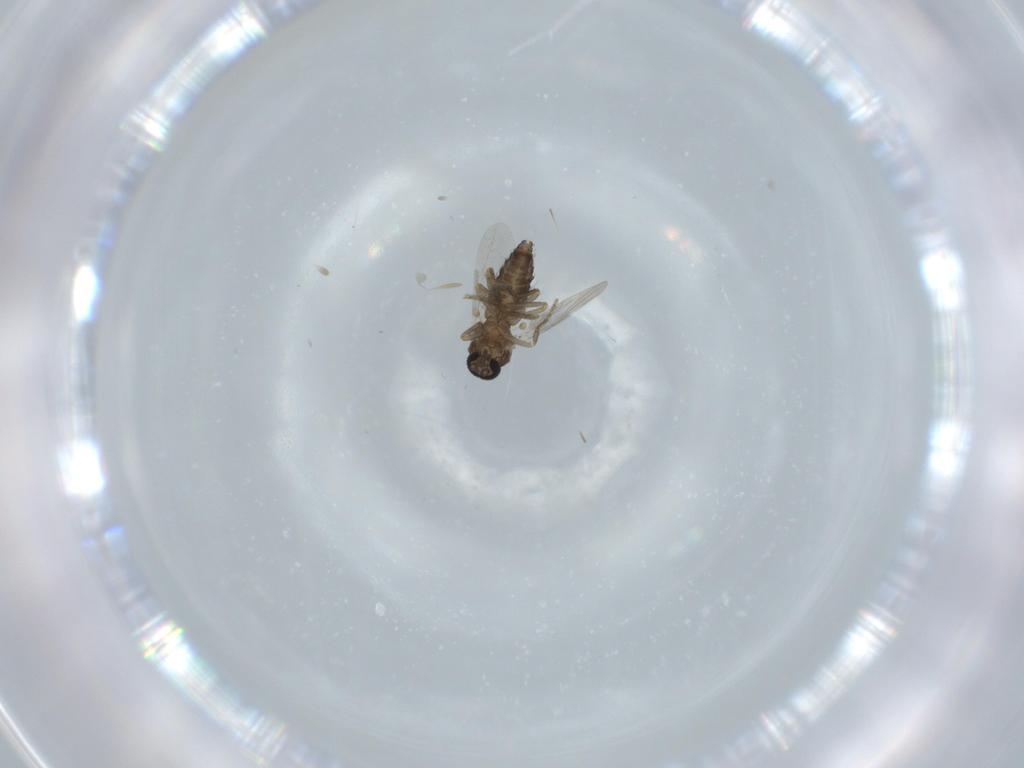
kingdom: Animalia
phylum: Arthropoda
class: Insecta
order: Diptera
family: Ceratopogonidae
